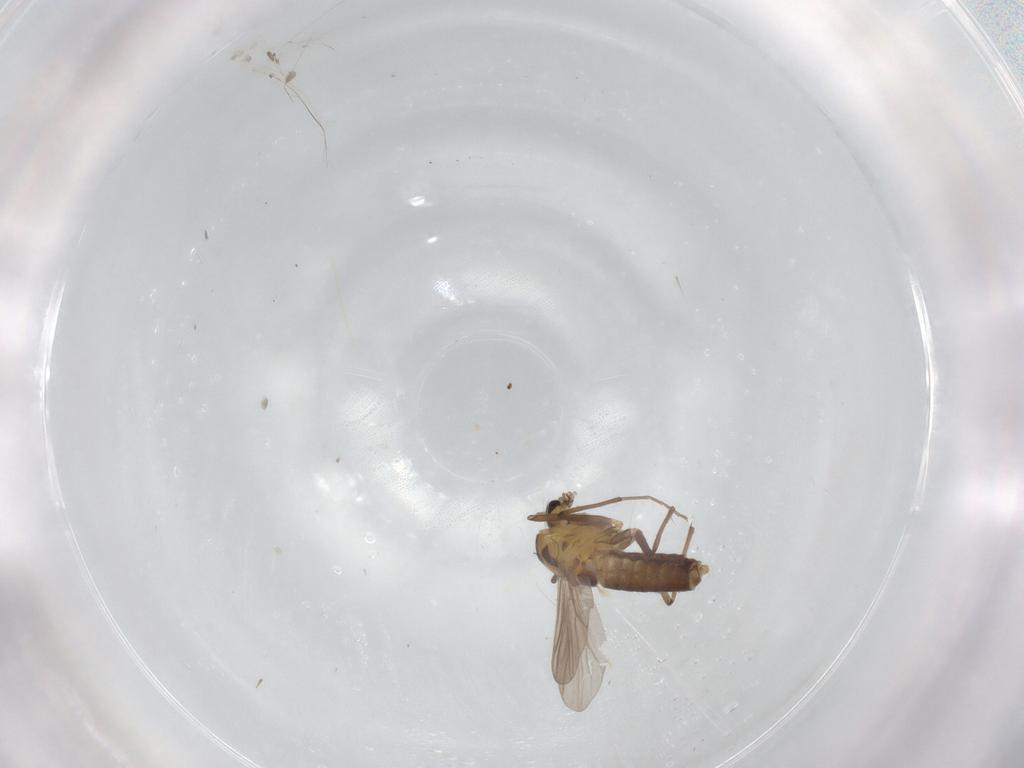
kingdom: Animalia
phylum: Arthropoda
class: Insecta
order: Diptera
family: Chironomidae
